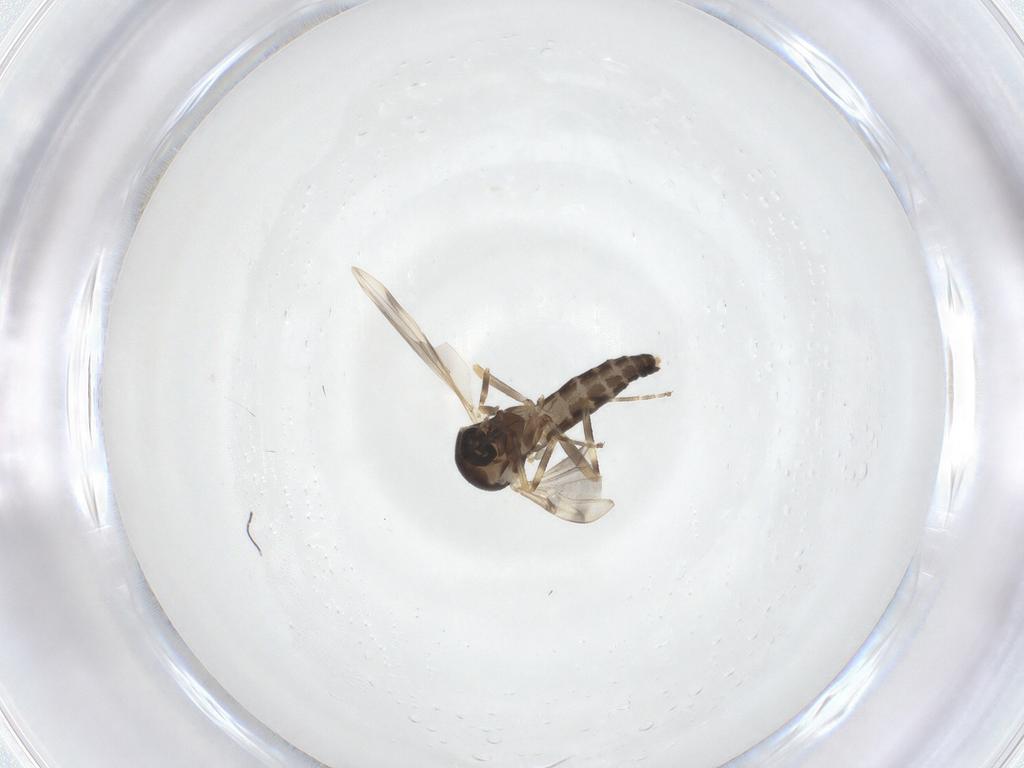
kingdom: Animalia
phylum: Arthropoda
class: Insecta
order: Diptera
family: Ceratopogonidae
